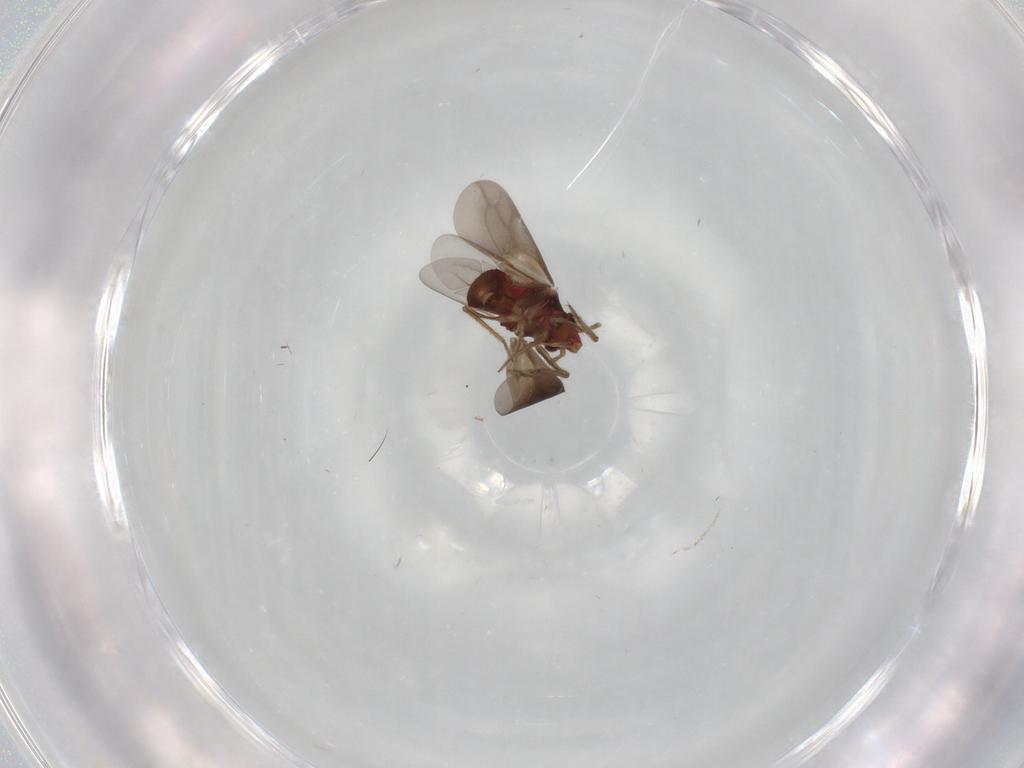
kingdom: Animalia
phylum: Arthropoda
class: Insecta
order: Hemiptera
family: Ceratocombidae
